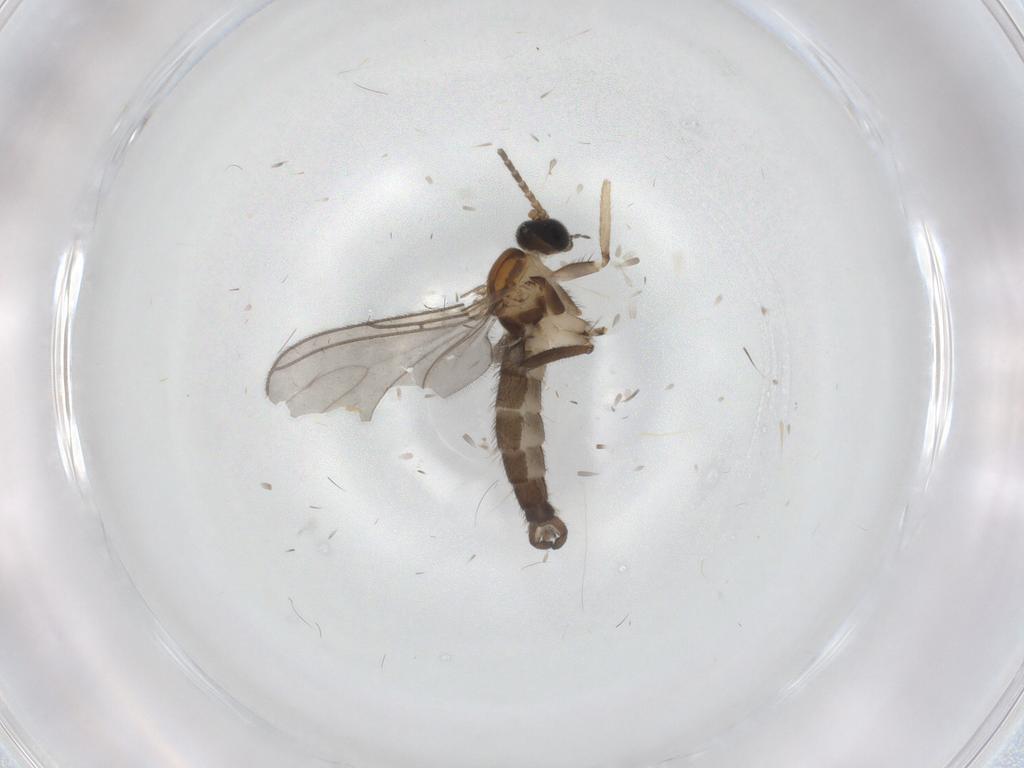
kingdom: Animalia
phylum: Arthropoda
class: Insecta
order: Diptera
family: Sciaridae
